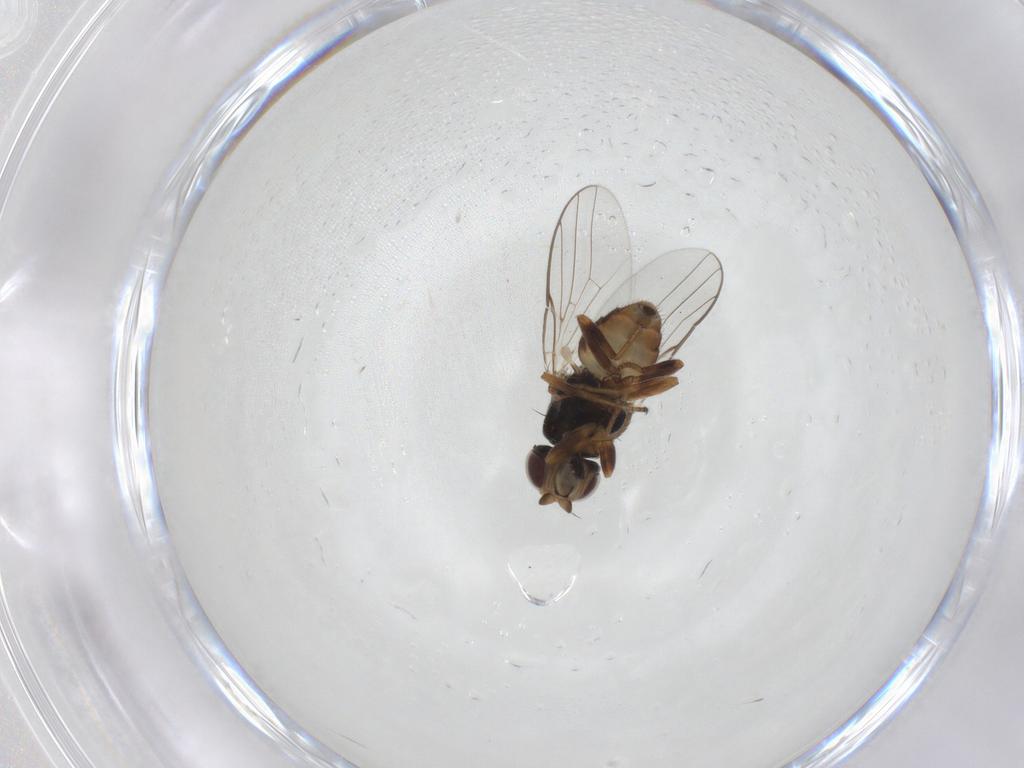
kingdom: Animalia
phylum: Arthropoda
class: Insecta
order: Diptera
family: Chloropidae
